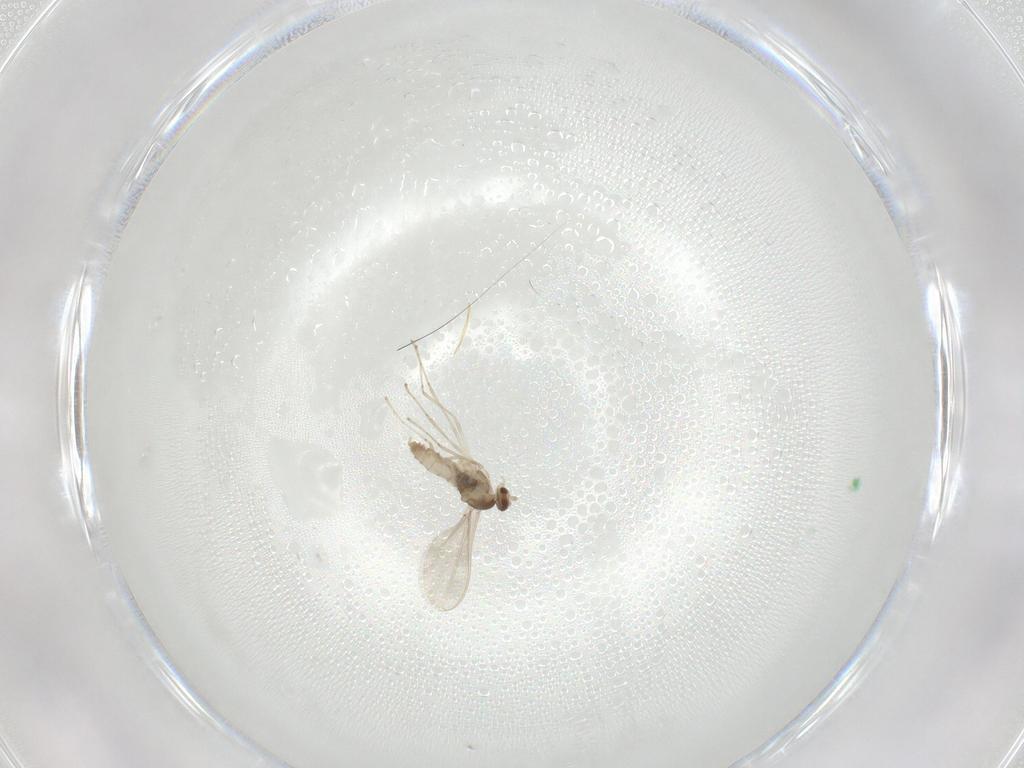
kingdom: Animalia
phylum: Arthropoda
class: Insecta
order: Diptera
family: Cecidomyiidae
